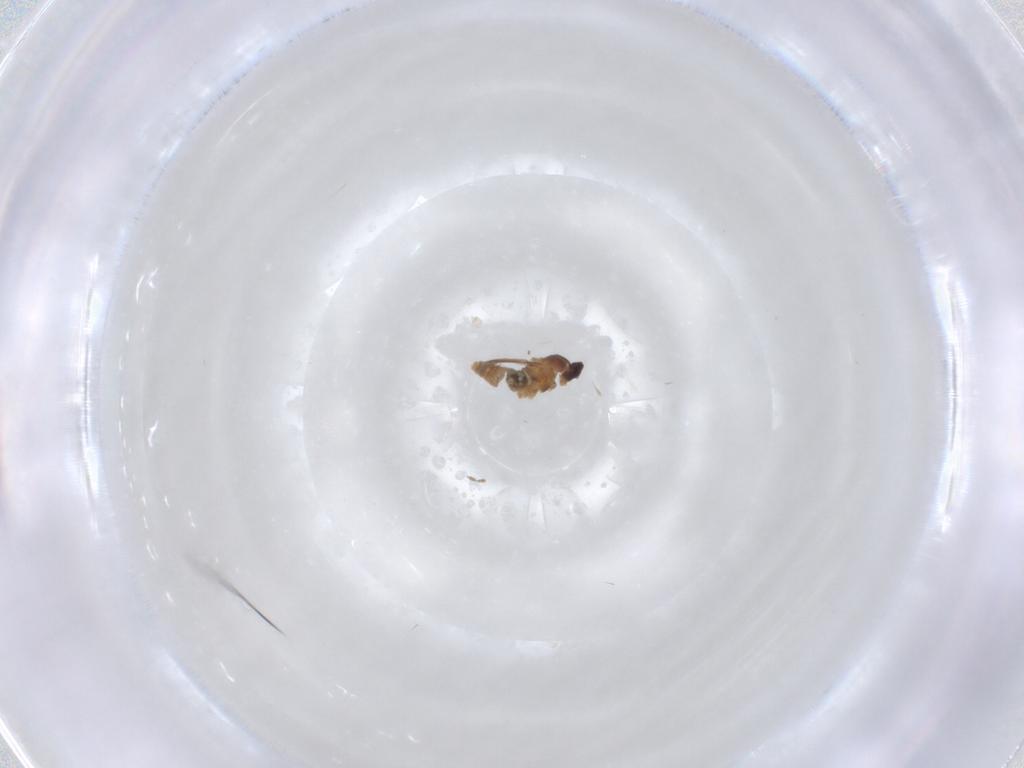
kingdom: Animalia
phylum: Arthropoda
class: Insecta
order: Diptera
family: Cecidomyiidae
